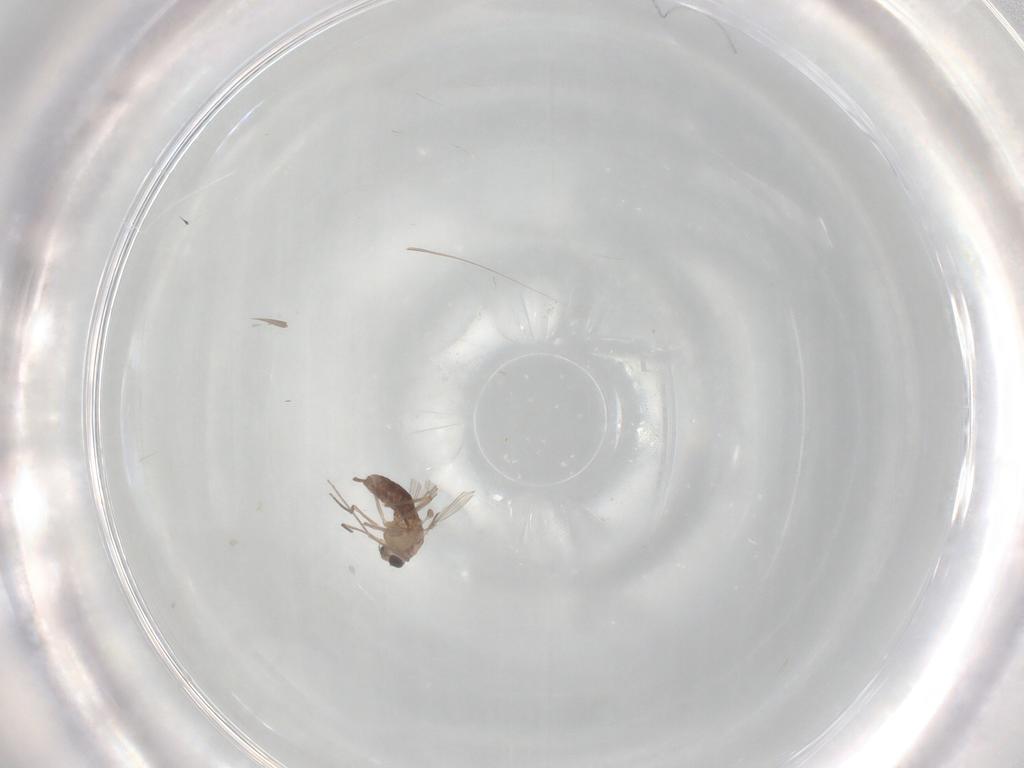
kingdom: Animalia
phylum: Arthropoda
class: Insecta
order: Diptera
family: Chironomidae
